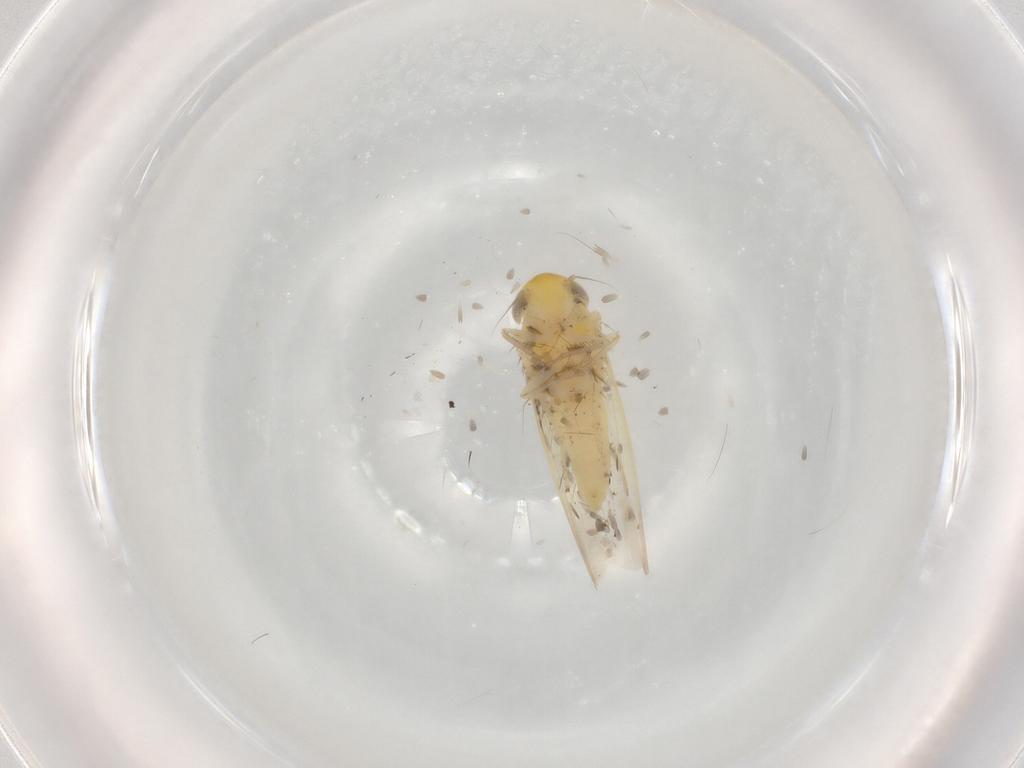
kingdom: Animalia
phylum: Arthropoda
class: Insecta
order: Hemiptera
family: Cicadellidae
